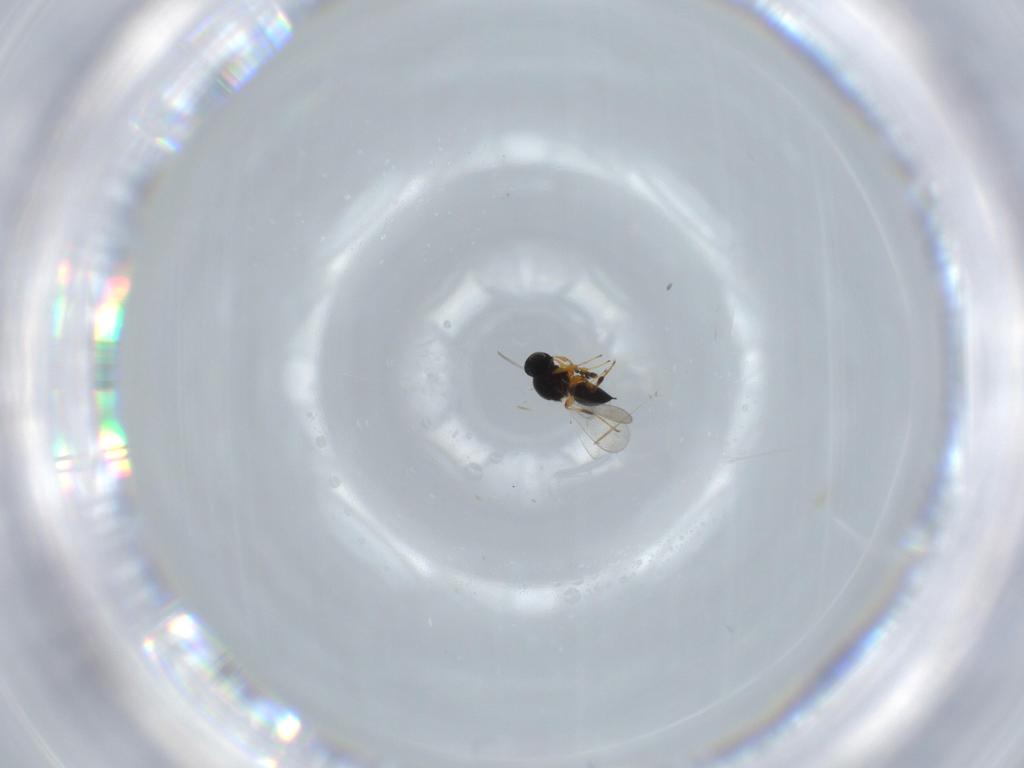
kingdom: Animalia
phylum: Arthropoda
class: Insecta
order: Hymenoptera
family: Platygastridae
